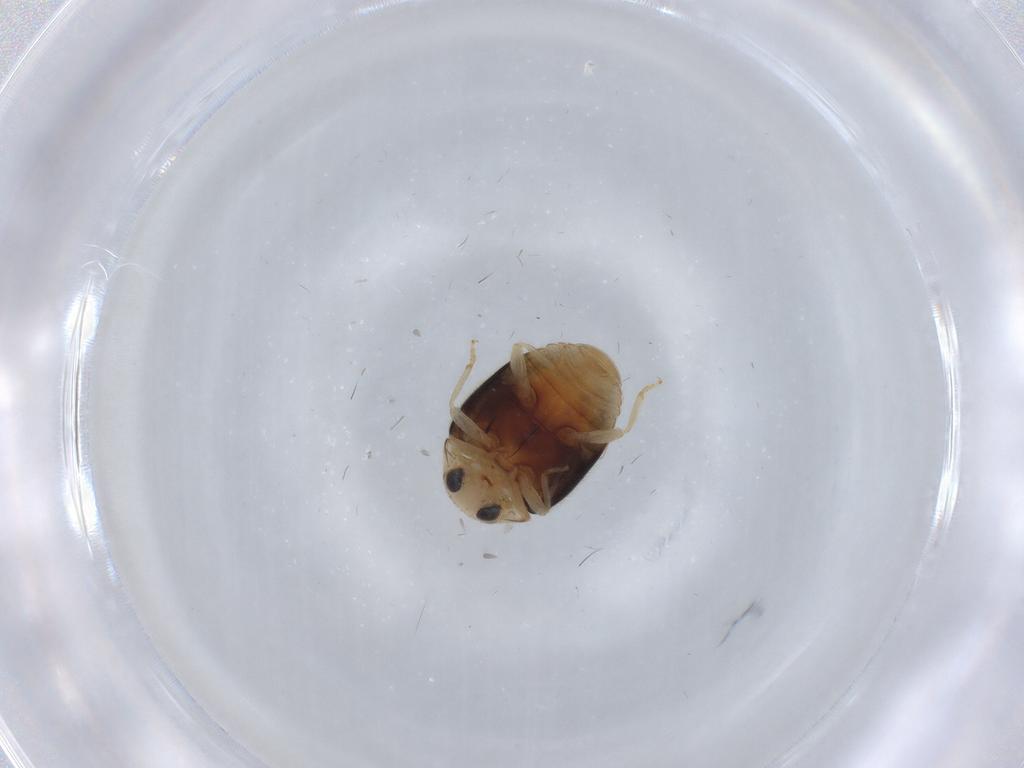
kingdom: Animalia
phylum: Arthropoda
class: Insecta
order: Coleoptera
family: Coccinellidae
